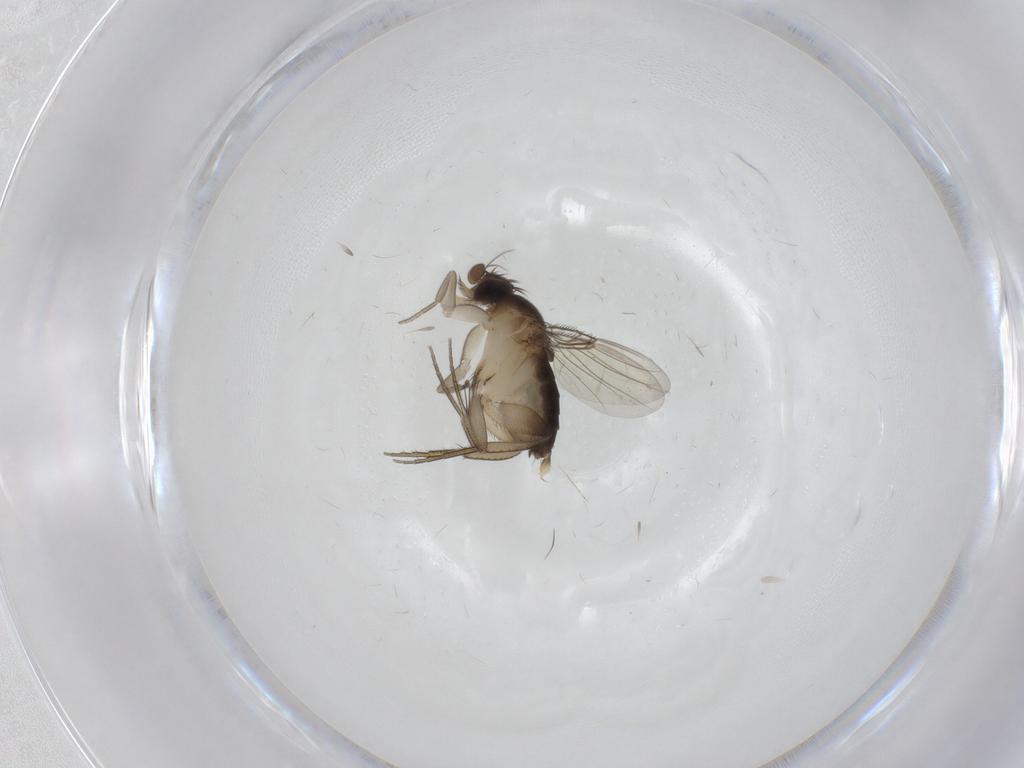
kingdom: Animalia
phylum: Arthropoda
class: Insecta
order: Diptera
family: Phoridae
